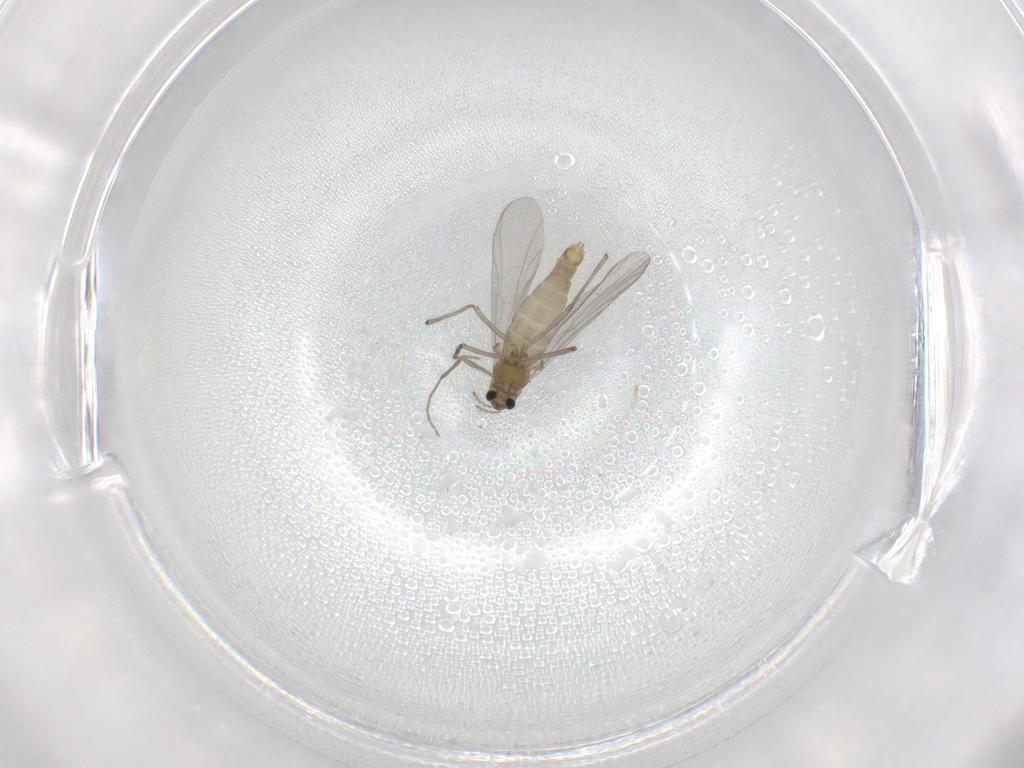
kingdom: Animalia
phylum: Arthropoda
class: Insecta
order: Diptera
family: Chironomidae
